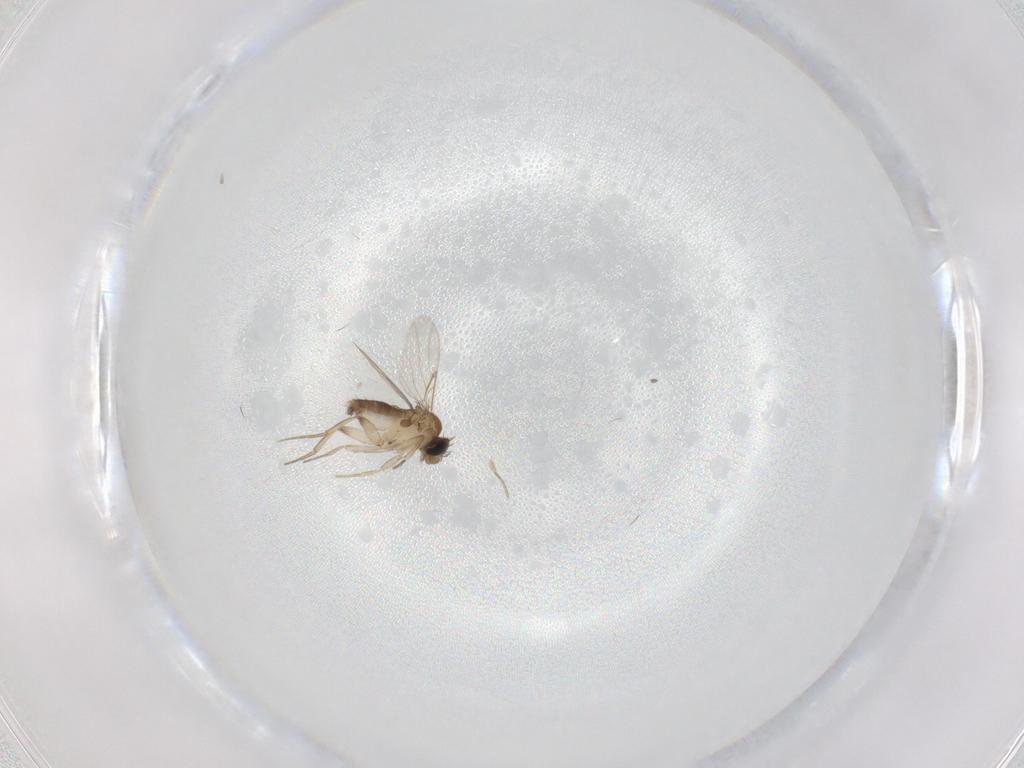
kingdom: Animalia
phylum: Arthropoda
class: Insecta
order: Diptera
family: Phoridae
